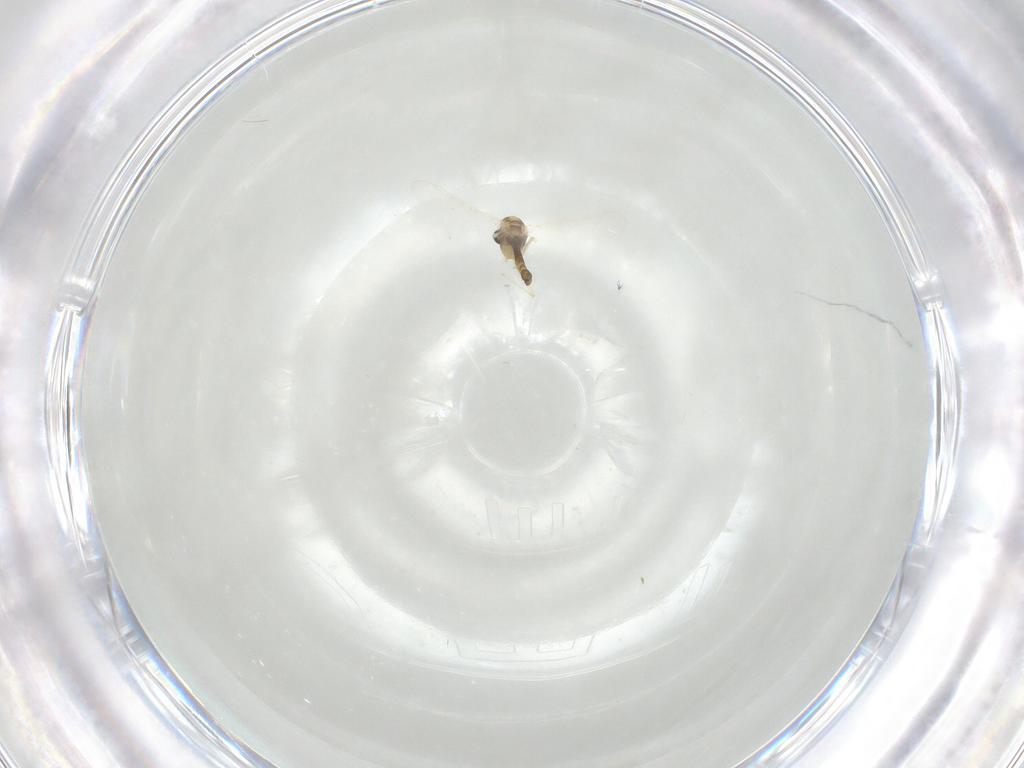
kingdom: Animalia
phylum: Arthropoda
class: Insecta
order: Diptera
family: Chironomidae
